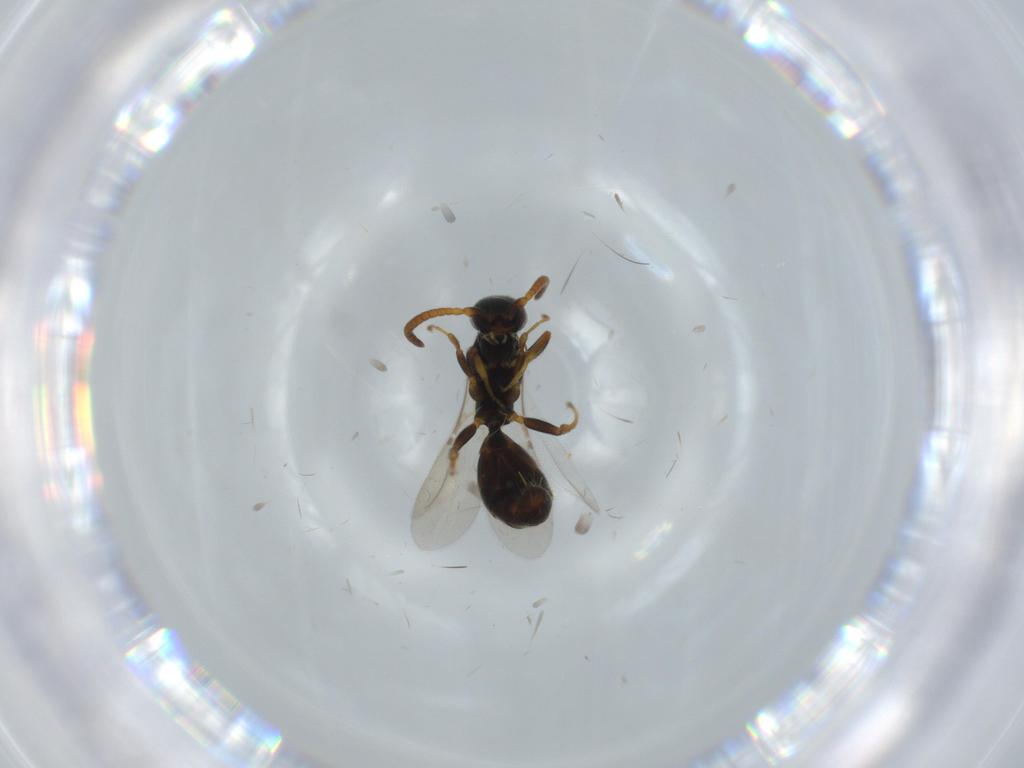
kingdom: Animalia
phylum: Arthropoda
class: Insecta
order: Hymenoptera
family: Bethylidae
